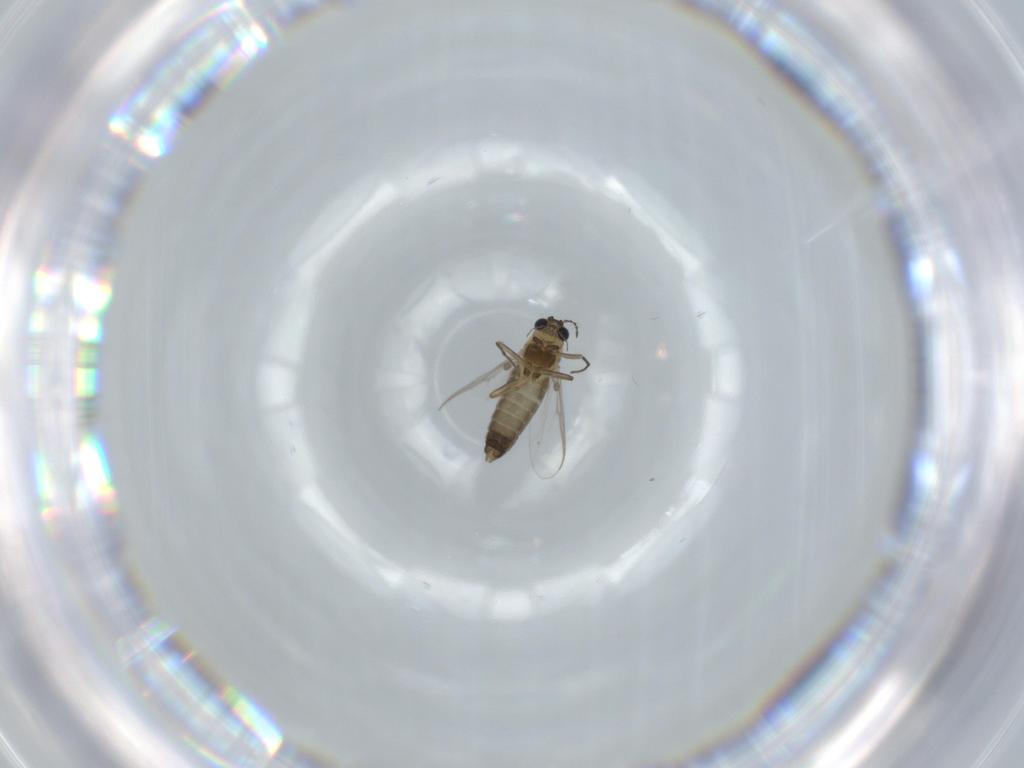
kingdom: Animalia
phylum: Arthropoda
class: Insecta
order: Diptera
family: Chironomidae
